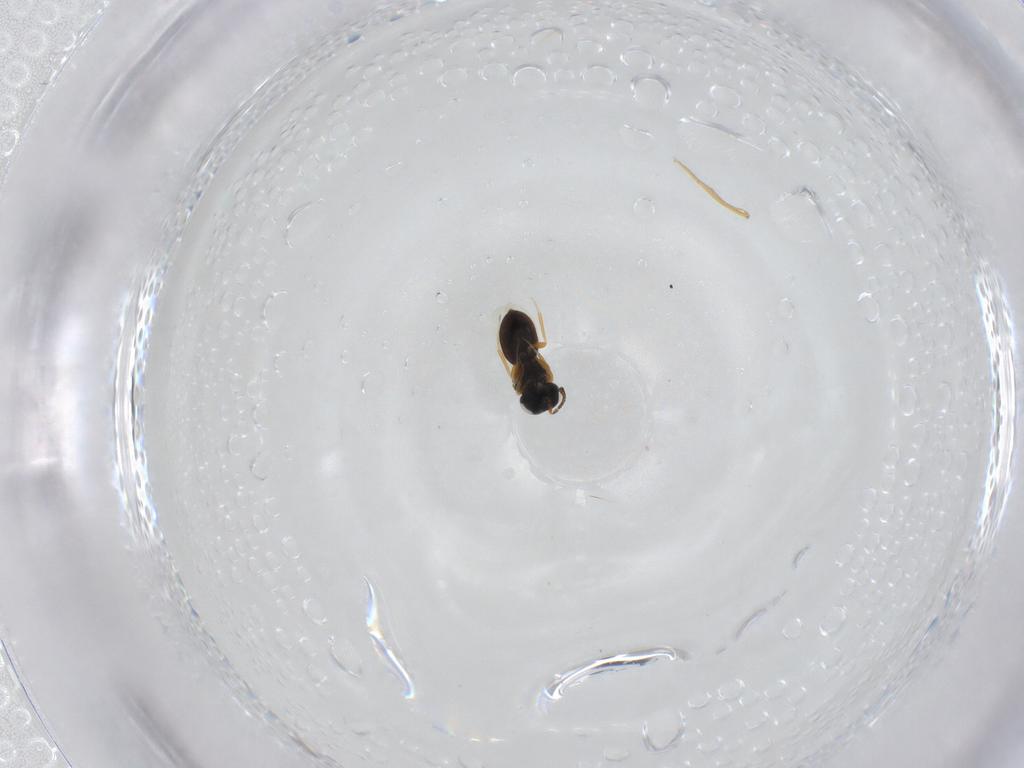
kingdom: Animalia
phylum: Arthropoda
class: Insecta
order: Hymenoptera
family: Scelionidae
